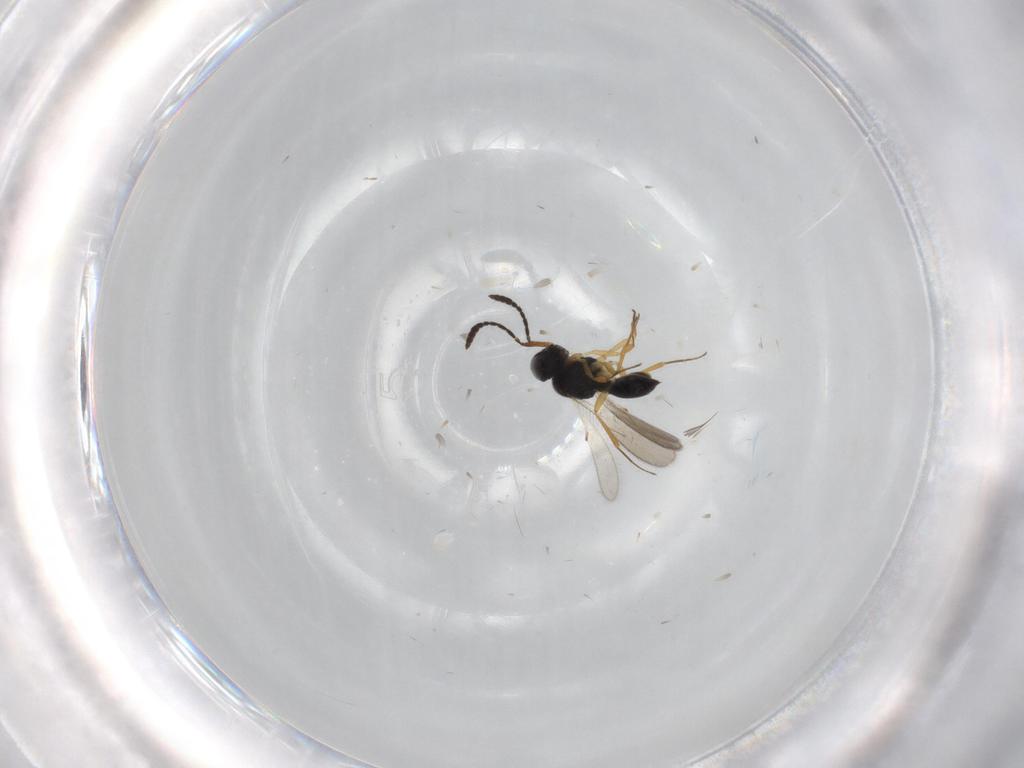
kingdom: Animalia
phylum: Arthropoda
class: Insecta
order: Hymenoptera
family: Scelionidae
